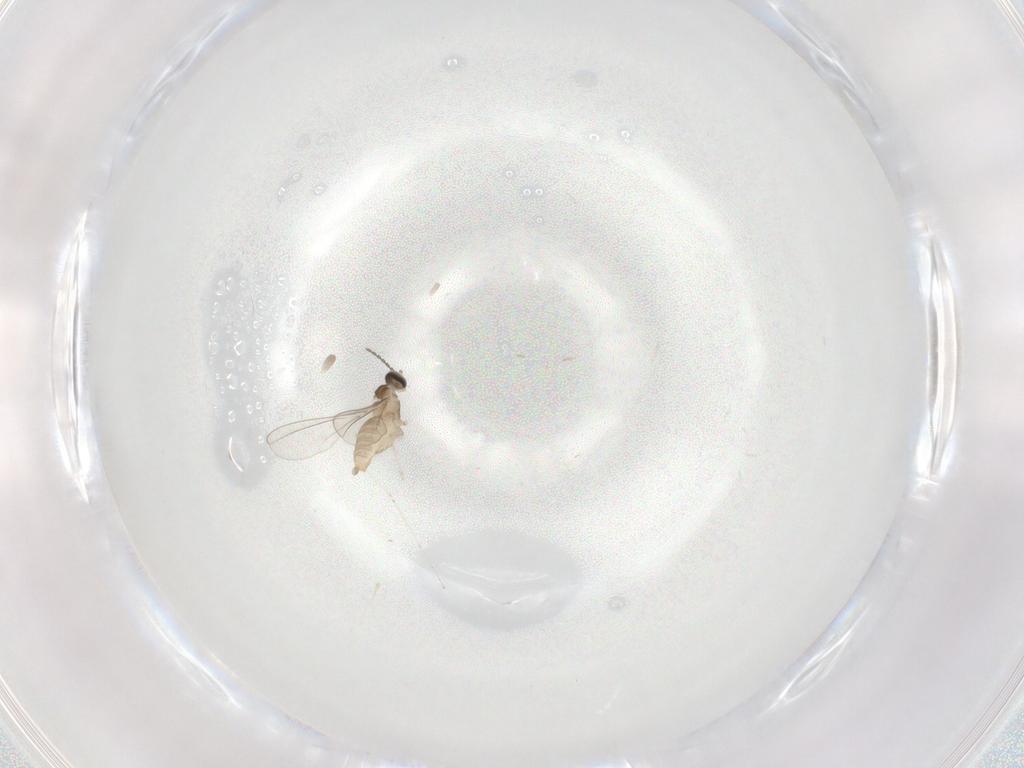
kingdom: Animalia
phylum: Arthropoda
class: Insecta
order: Diptera
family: Cecidomyiidae
